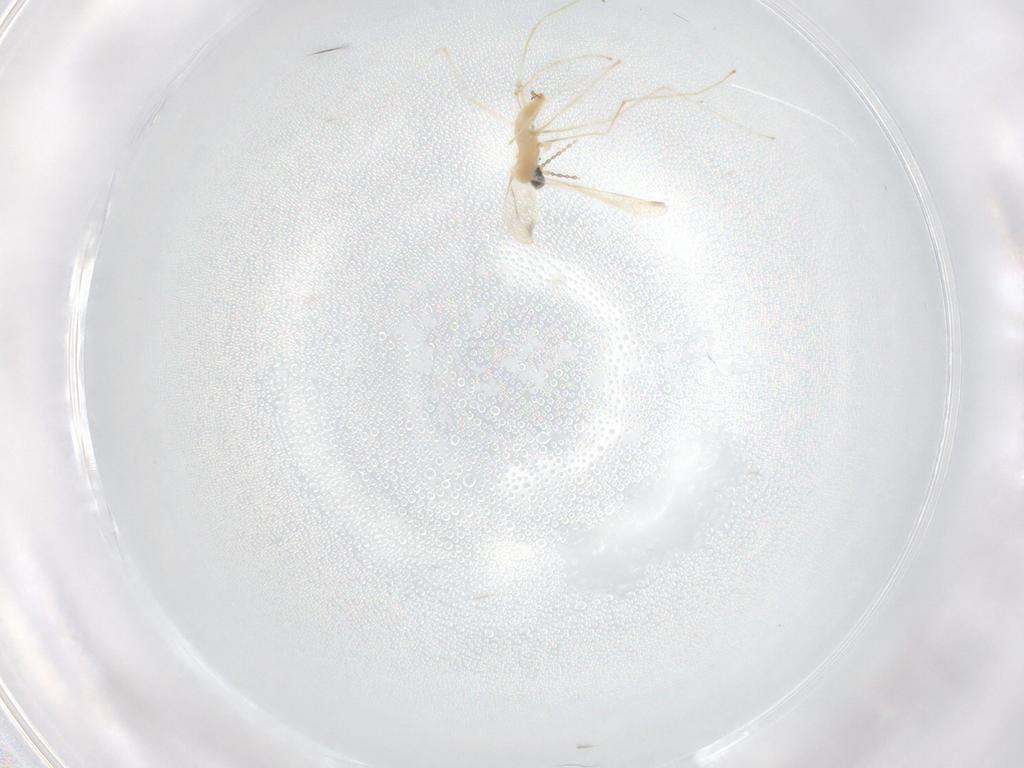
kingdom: Animalia
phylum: Arthropoda
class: Insecta
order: Diptera
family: Cecidomyiidae
